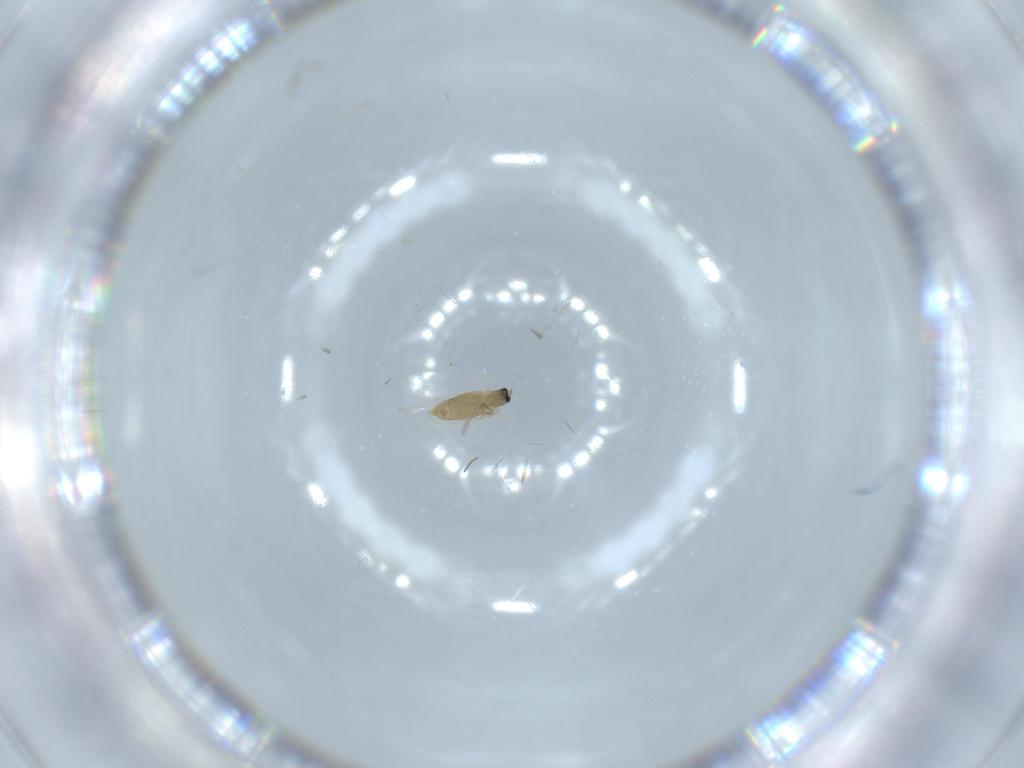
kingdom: Animalia
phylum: Arthropoda
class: Insecta
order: Diptera
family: Cecidomyiidae
